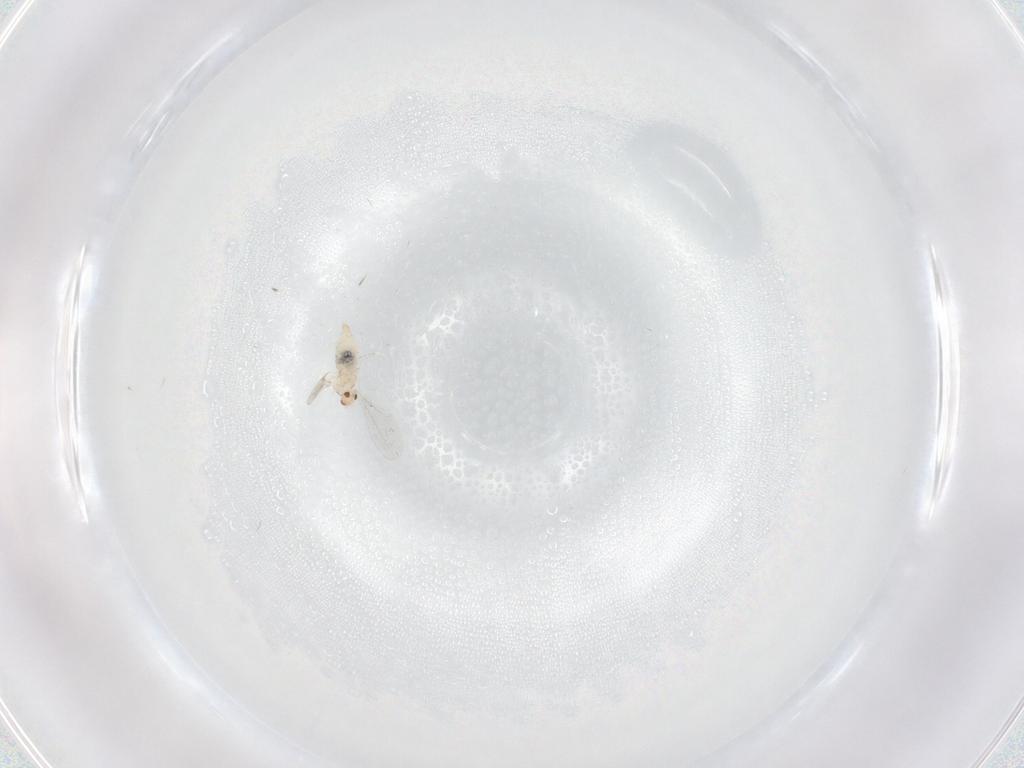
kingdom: Animalia
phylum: Arthropoda
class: Insecta
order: Diptera
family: Cecidomyiidae
